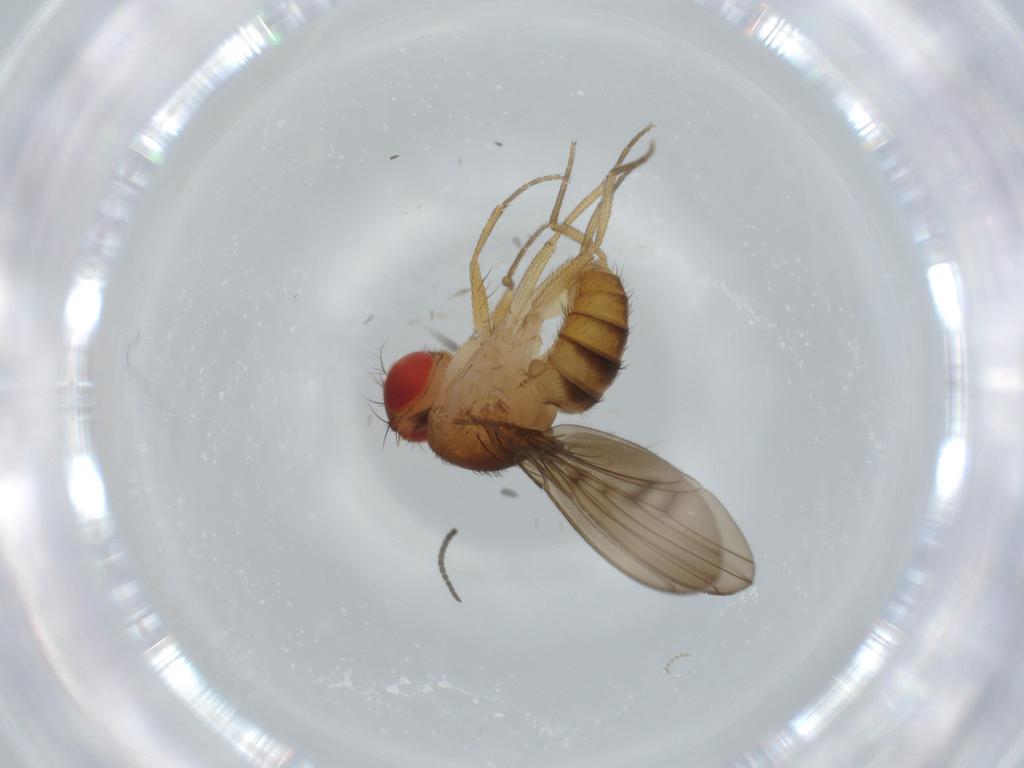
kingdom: Animalia
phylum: Arthropoda
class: Insecta
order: Diptera
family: Drosophilidae
